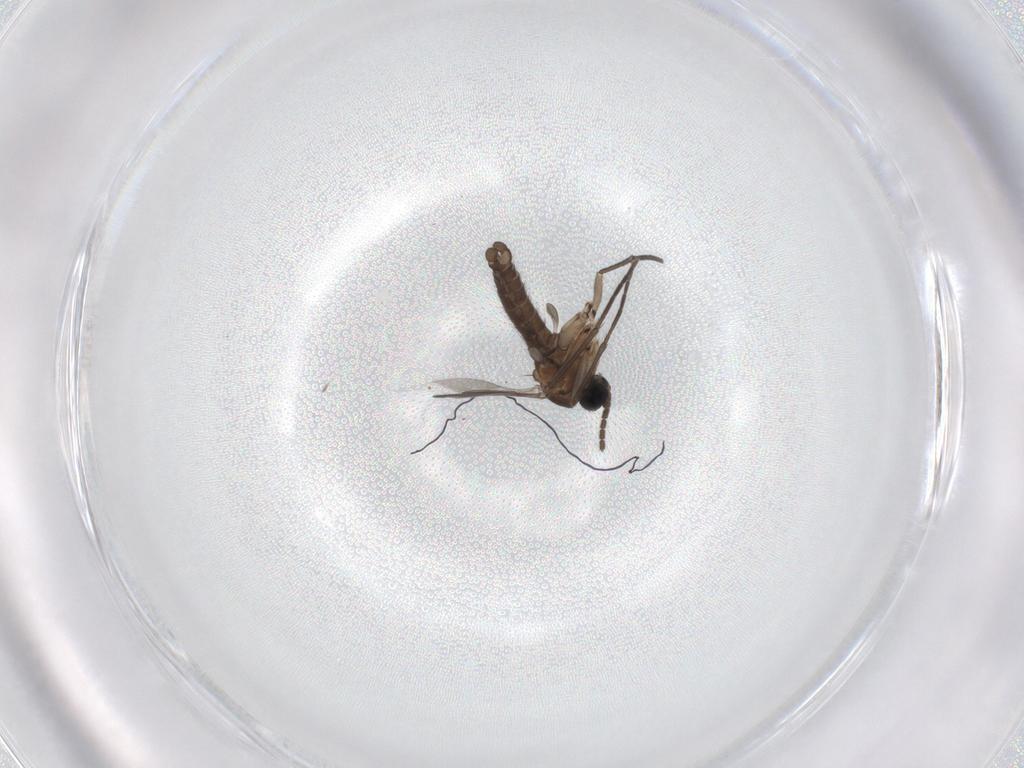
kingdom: Animalia
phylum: Arthropoda
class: Insecta
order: Diptera
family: Sciaridae
